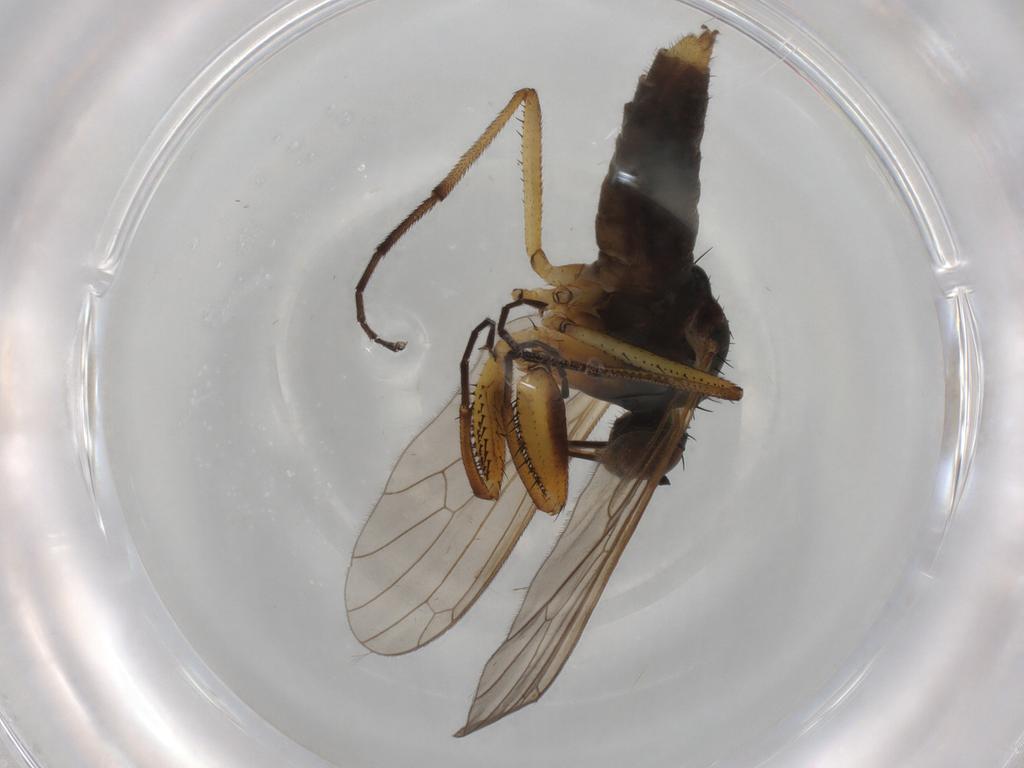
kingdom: Animalia
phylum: Arthropoda
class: Insecta
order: Diptera
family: Empididae
